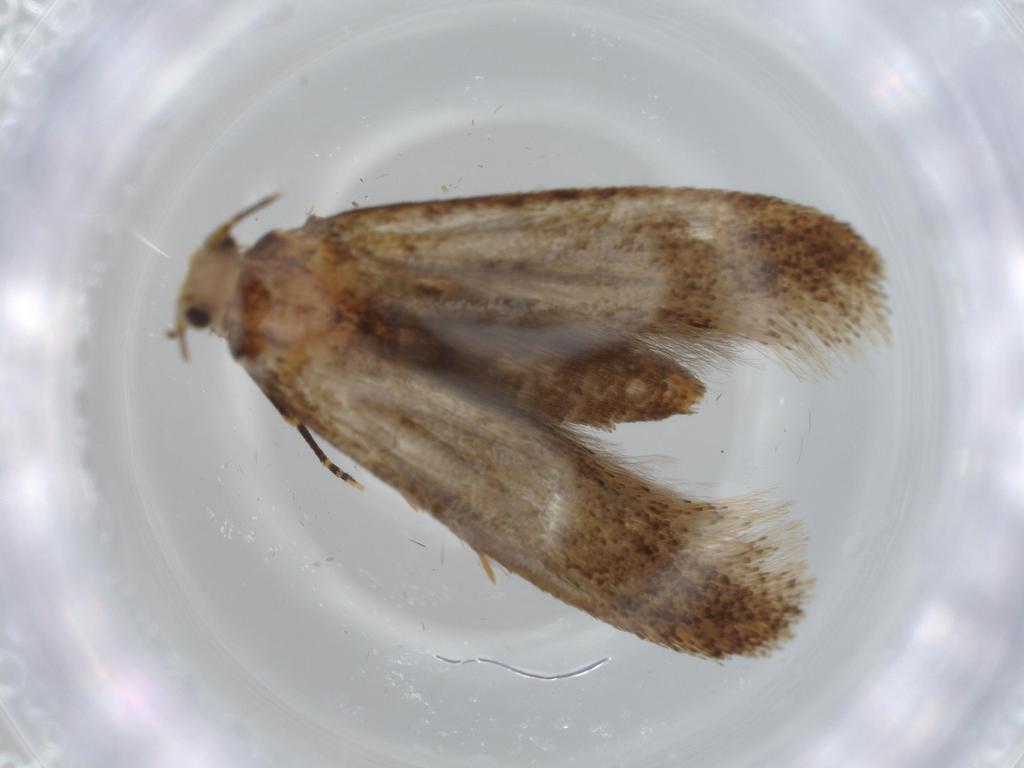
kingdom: Animalia
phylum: Arthropoda
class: Insecta
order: Lepidoptera
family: Tineidae
